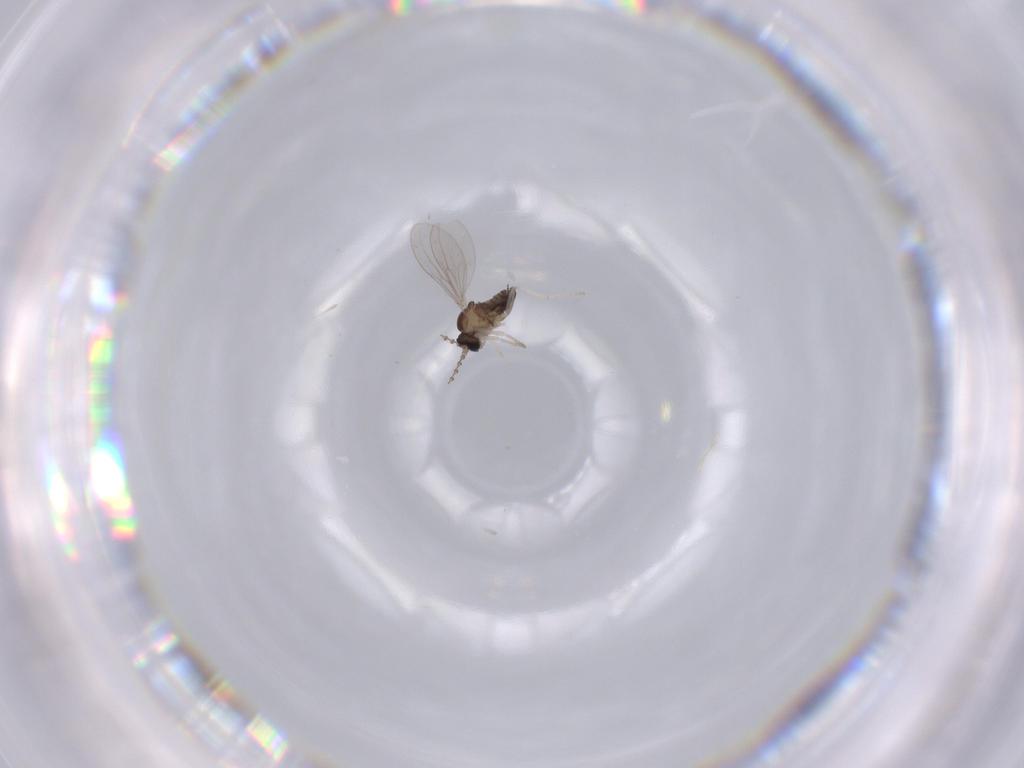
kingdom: Animalia
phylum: Arthropoda
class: Insecta
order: Diptera
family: Cecidomyiidae
